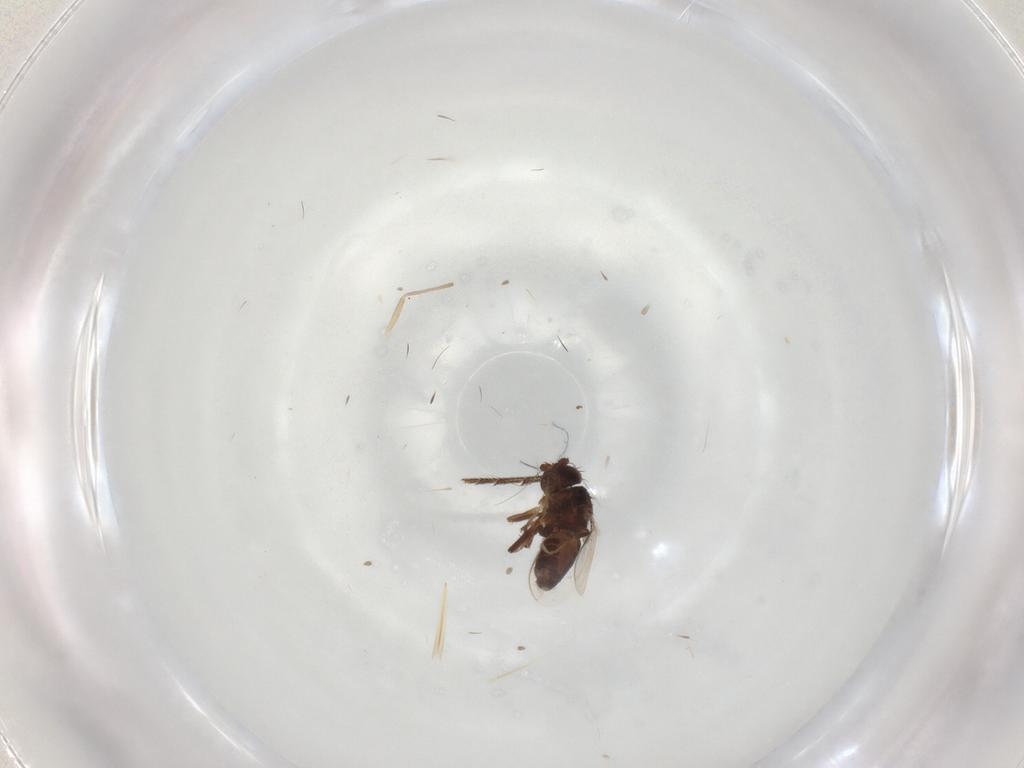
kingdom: Animalia
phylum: Arthropoda
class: Insecta
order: Diptera
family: Sphaeroceridae
